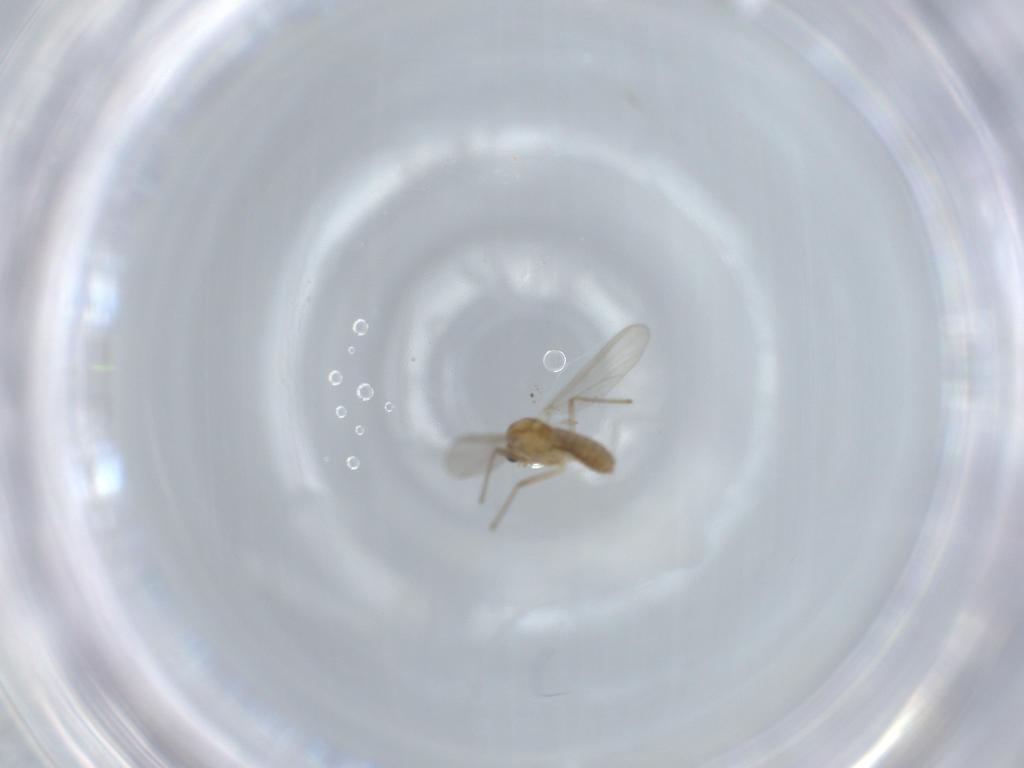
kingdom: Animalia
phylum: Arthropoda
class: Insecta
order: Diptera
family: Chironomidae
